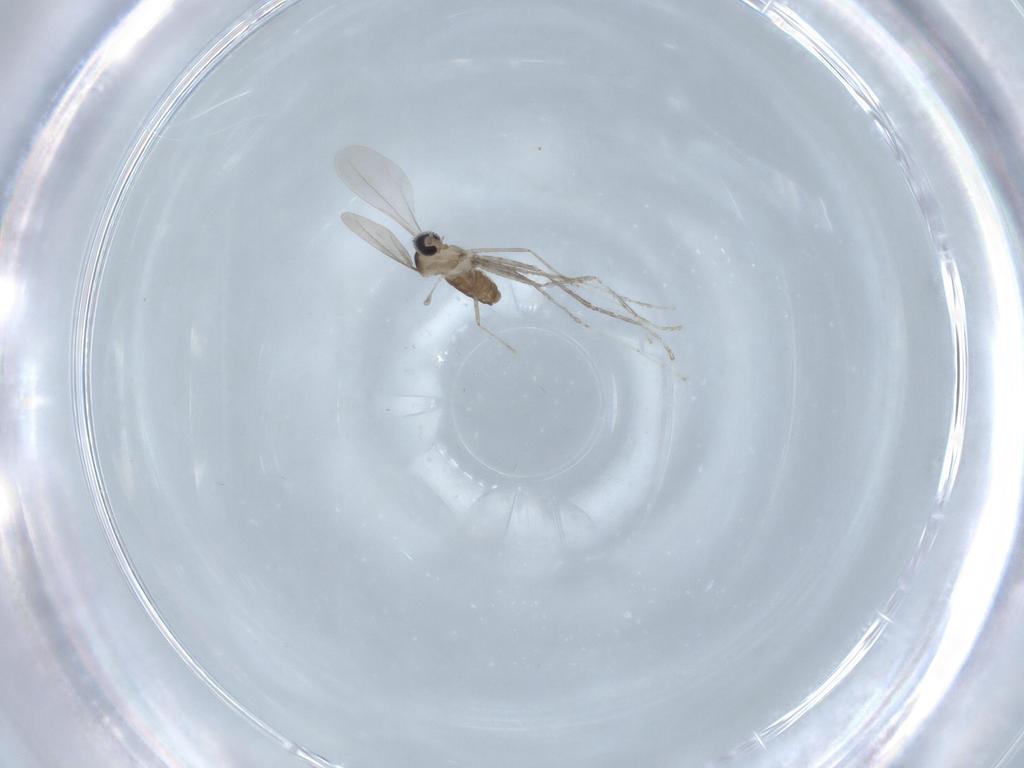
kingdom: Animalia
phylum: Arthropoda
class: Insecta
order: Diptera
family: Cecidomyiidae
